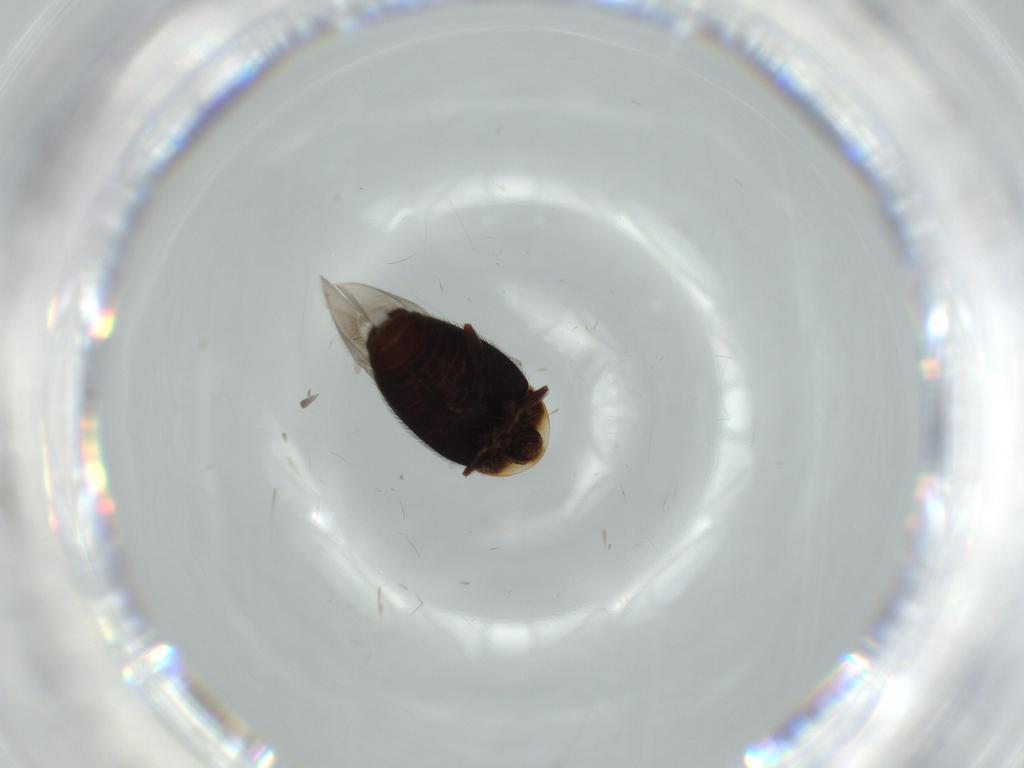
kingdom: Animalia
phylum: Arthropoda
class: Insecta
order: Coleoptera
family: Corylophidae
